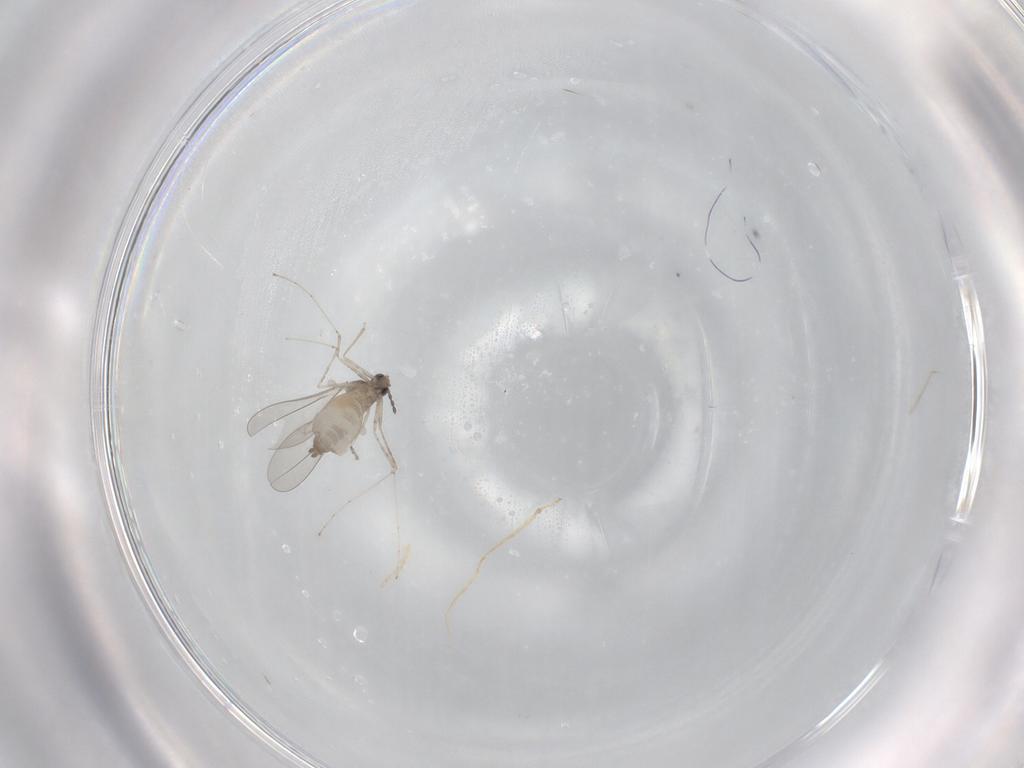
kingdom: Animalia
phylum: Arthropoda
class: Insecta
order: Diptera
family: Cecidomyiidae
